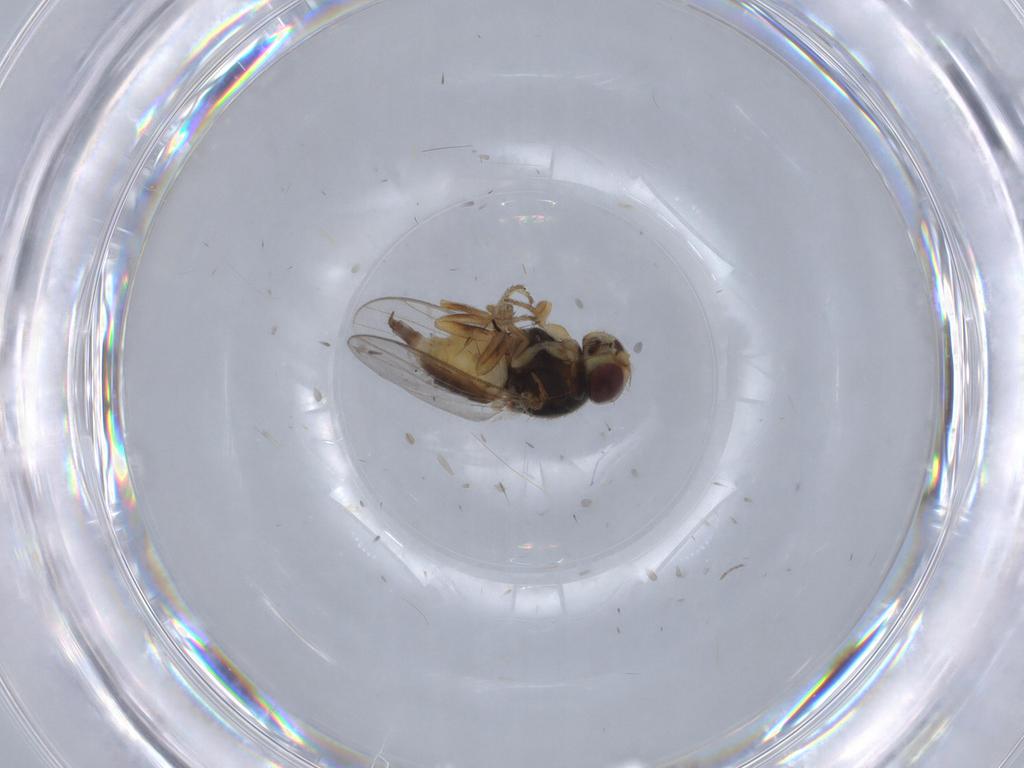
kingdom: Animalia
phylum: Arthropoda
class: Insecta
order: Diptera
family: Chloropidae
